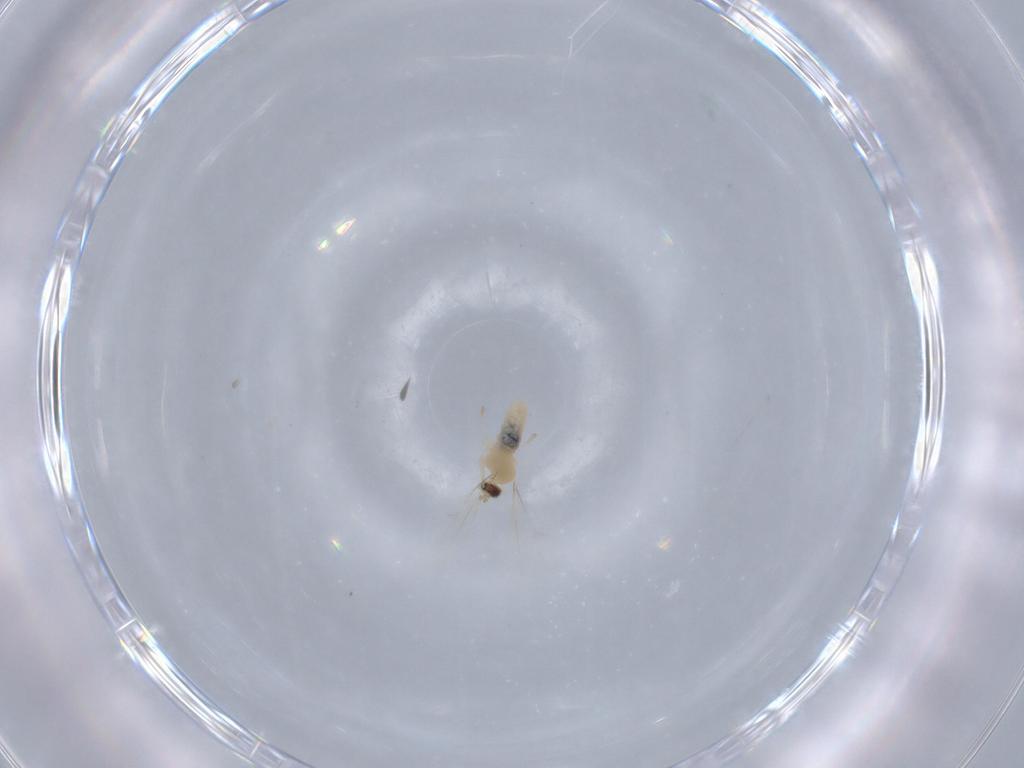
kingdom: Animalia
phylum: Arthropoda
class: Insecta
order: Diptera
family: Cecidomyiidae
